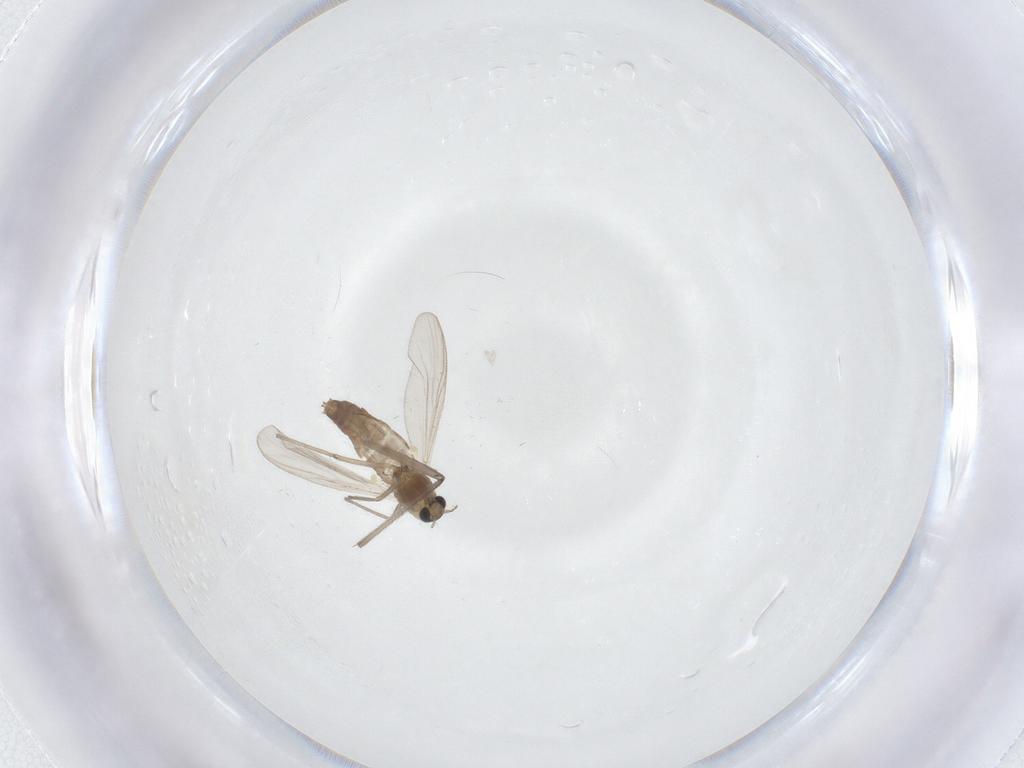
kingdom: Animalia
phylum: Arthropoda
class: Insecta
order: Diptera
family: Chironomidae
